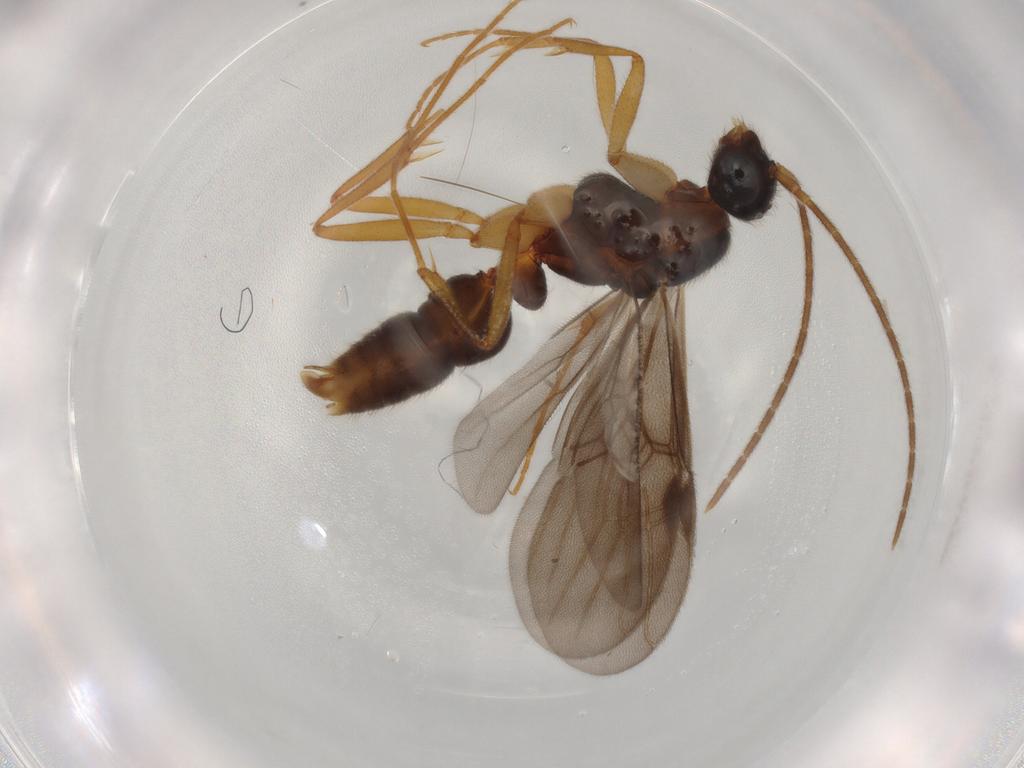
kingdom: Animalia
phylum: Arthropoda
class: Insecta
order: Hymenoptera
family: Formicidae
